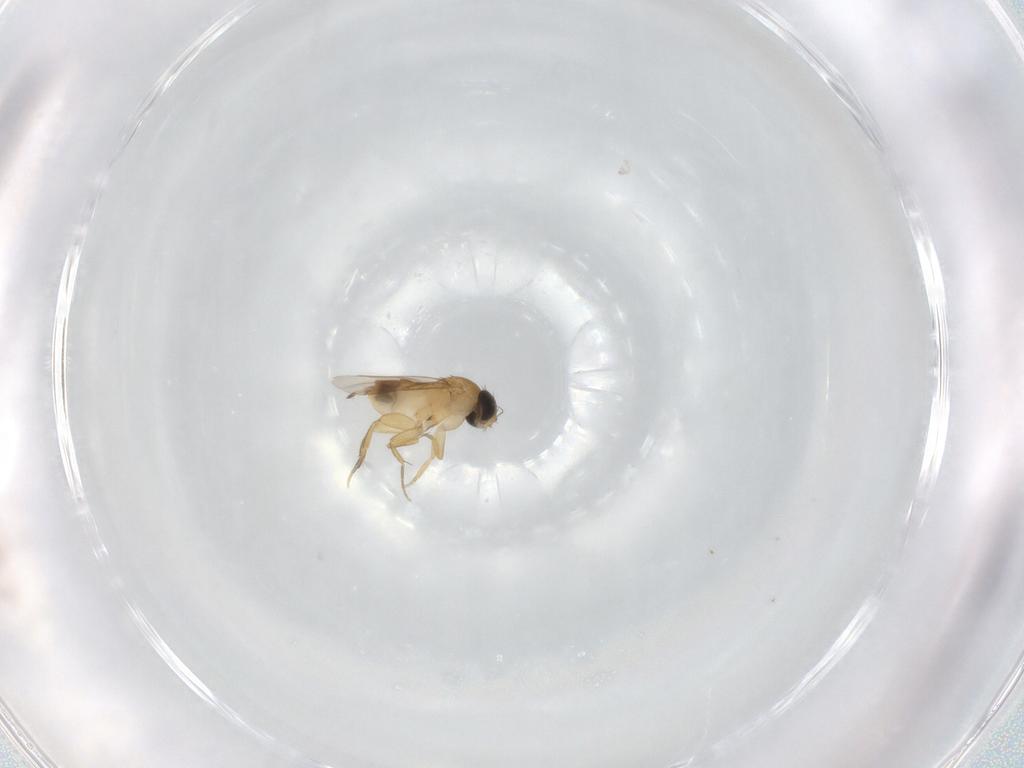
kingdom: Animalia
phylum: Arthropoda
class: Insecta
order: Diptera
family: Phoridae
